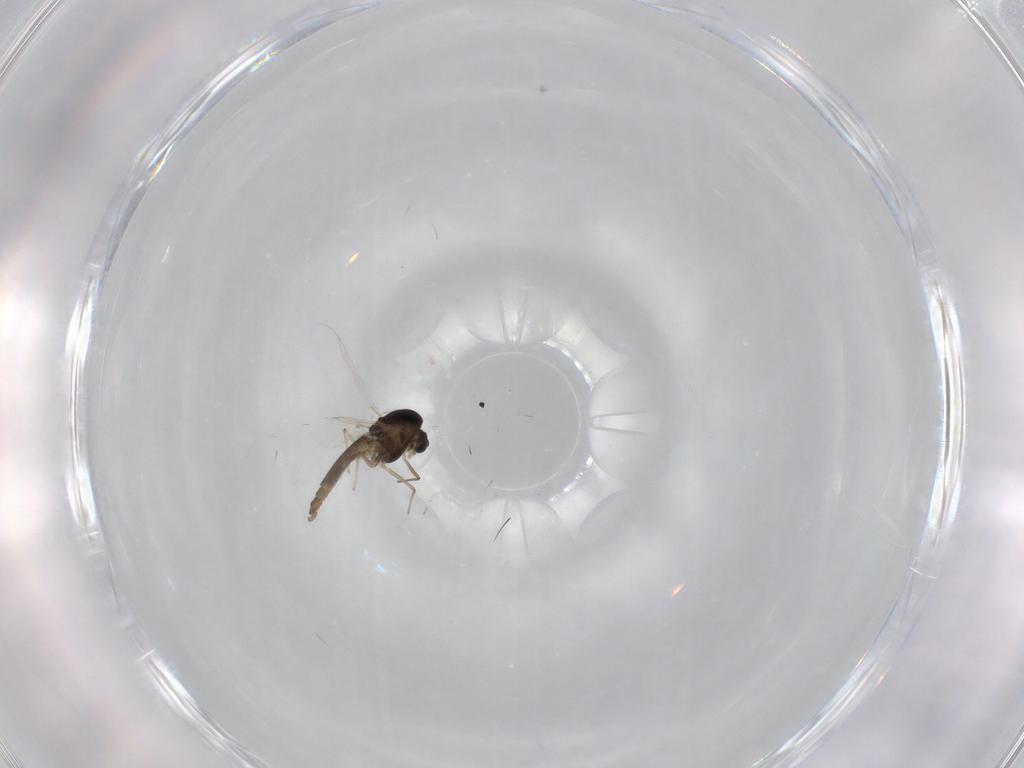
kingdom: Animalia
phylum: Arthropoda
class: Insecta
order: Diptera
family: Chironomidae
